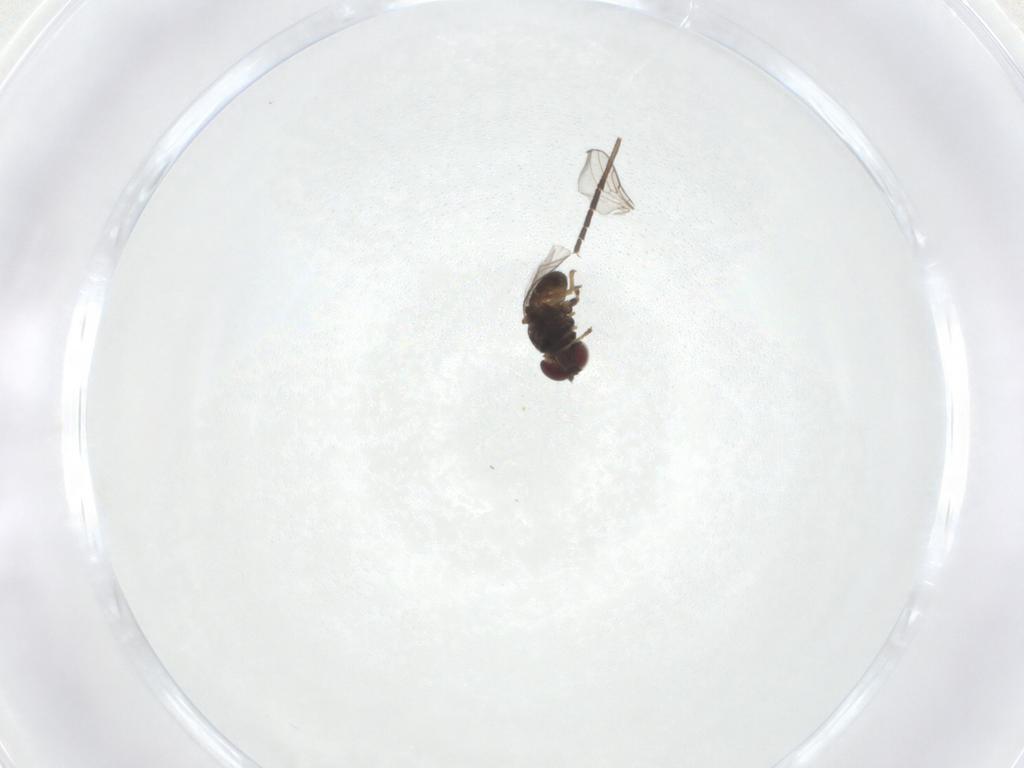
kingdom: Animalia
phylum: Arthropoda
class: Insecta
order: Diptera
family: Chloropidae
